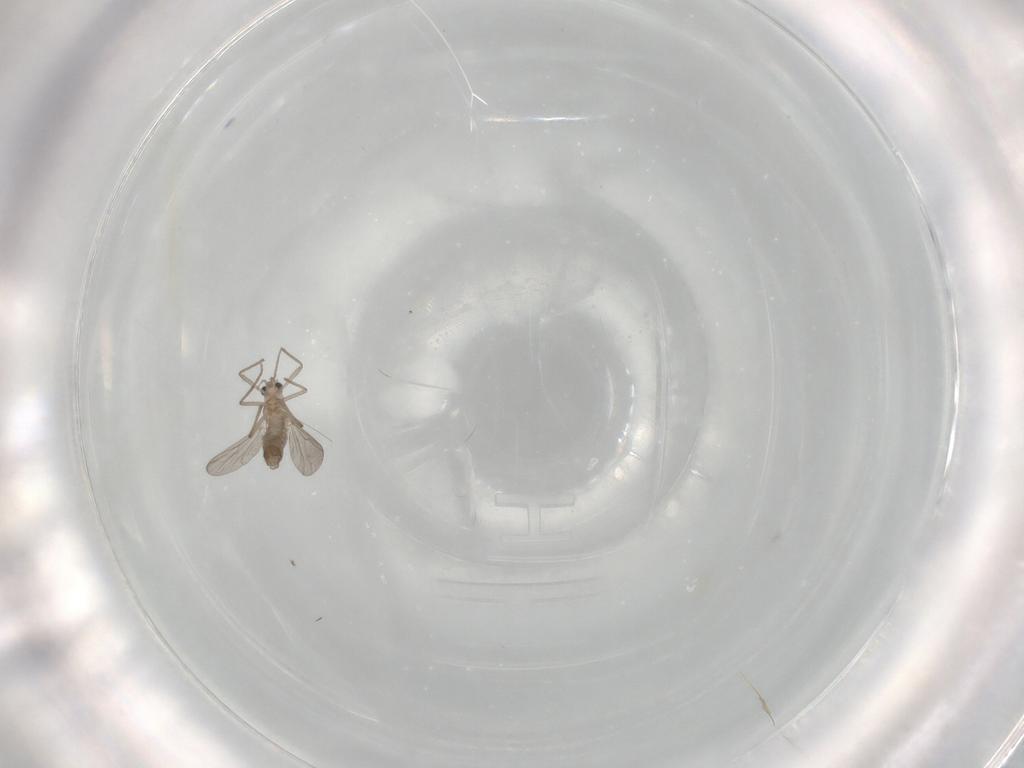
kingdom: Animalia
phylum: Arthropoda
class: Insecta
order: Diptera
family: Chironomidae
